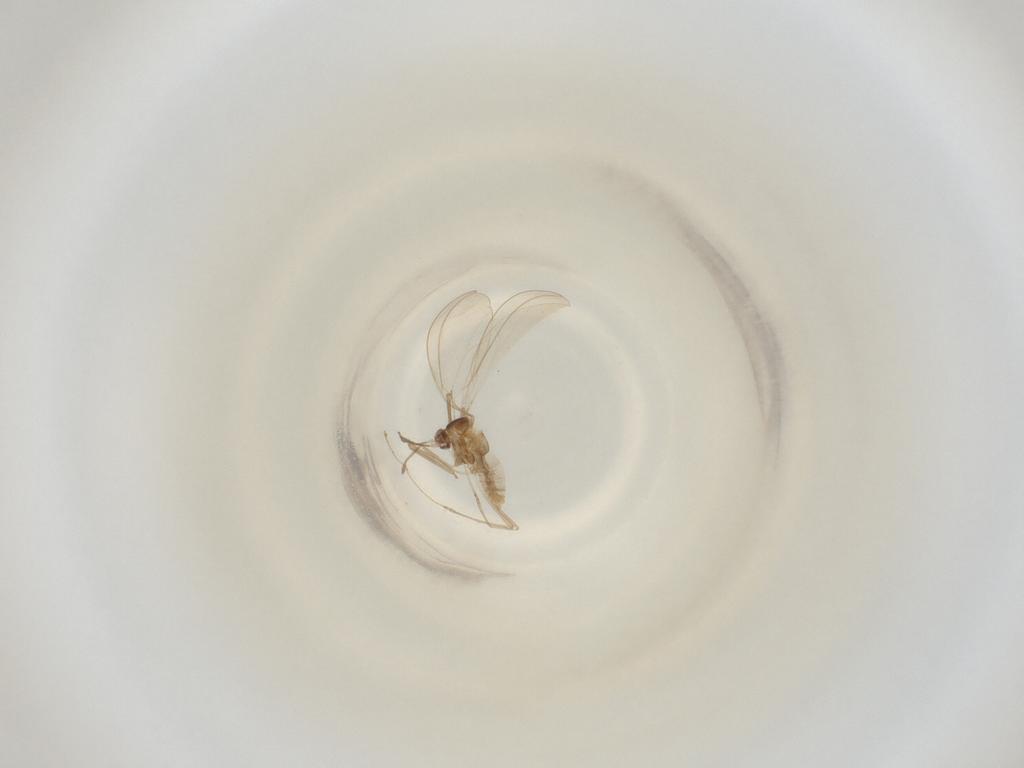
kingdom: Animalia
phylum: Arthropoda
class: Insecta
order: Diptera
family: Cecidomyiidae
